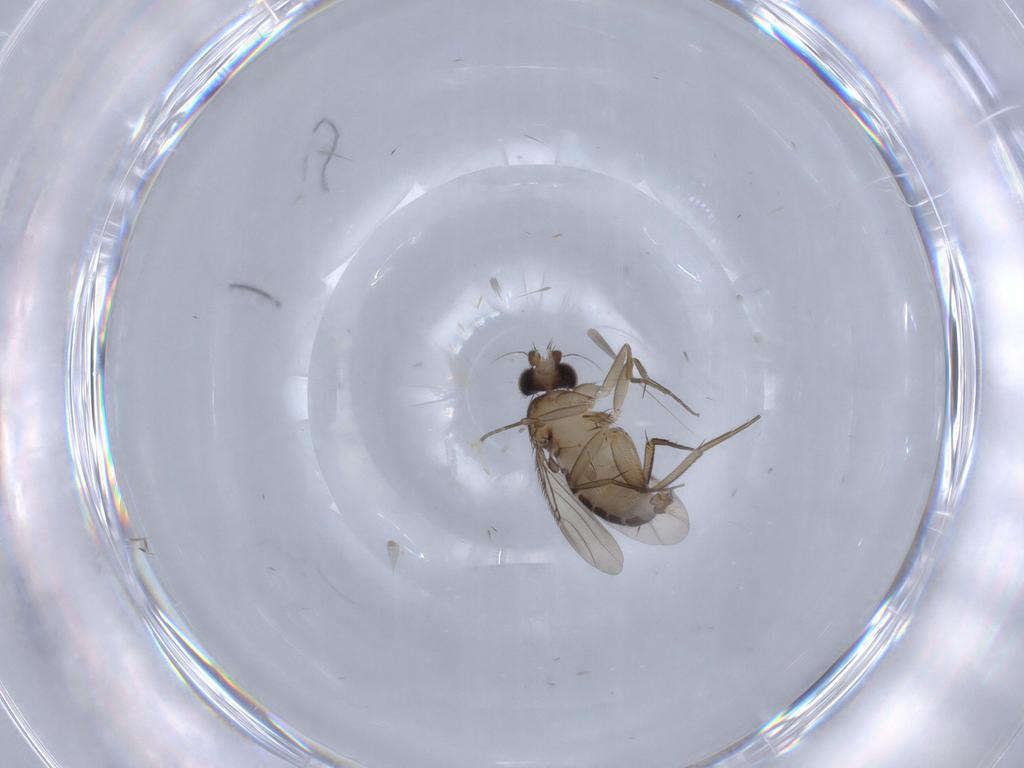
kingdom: Animalia
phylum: Arthropoda
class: Insecta
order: Diptera
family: Phoridae
